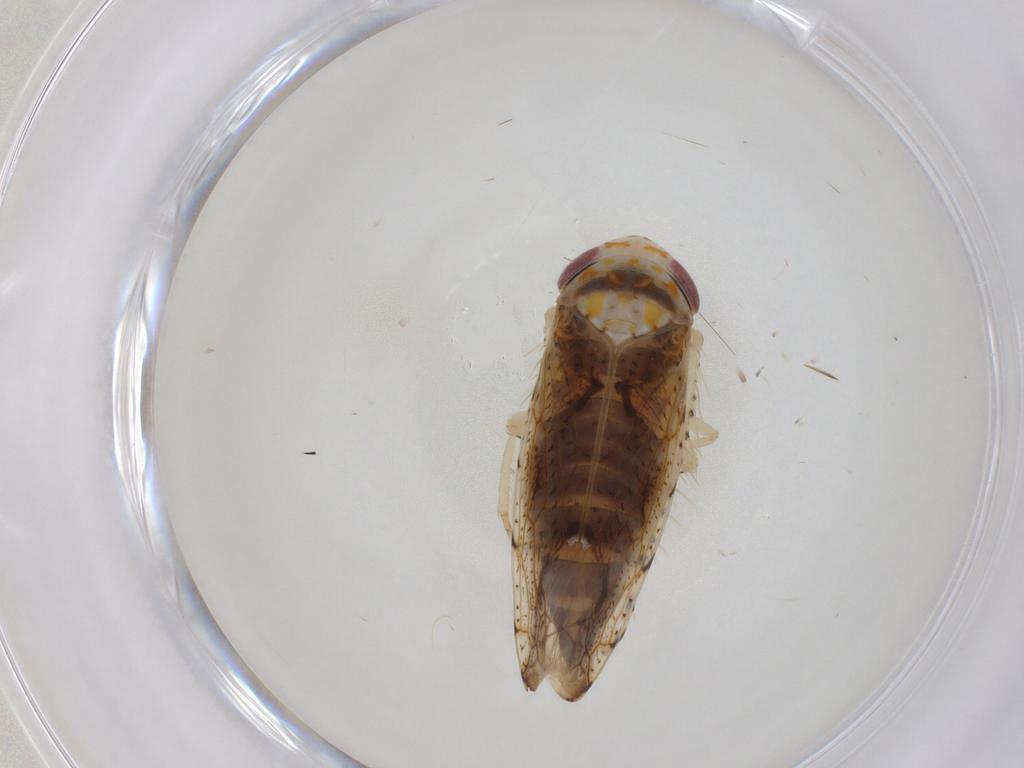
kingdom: Animalia
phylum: Arthropoda
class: Insecta
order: Hemiptera
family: Cicadellidae
